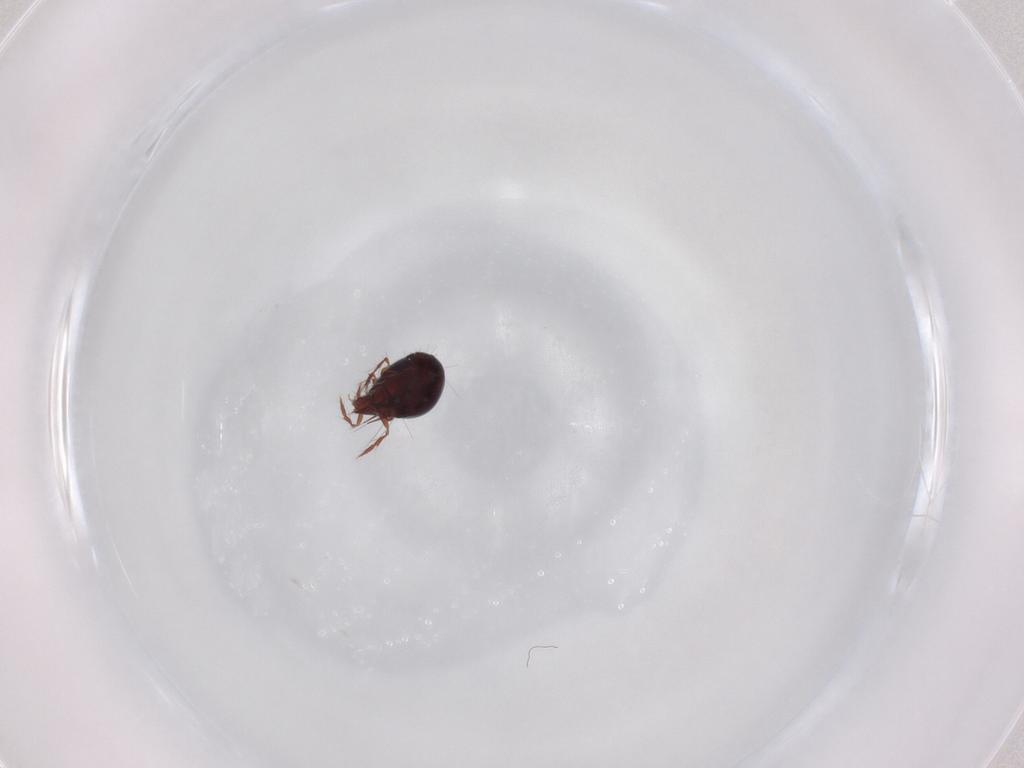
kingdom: Animalia
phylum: Arthropoda
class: Arachnida
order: Sarcoptiformes
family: Ceratoppiidae
